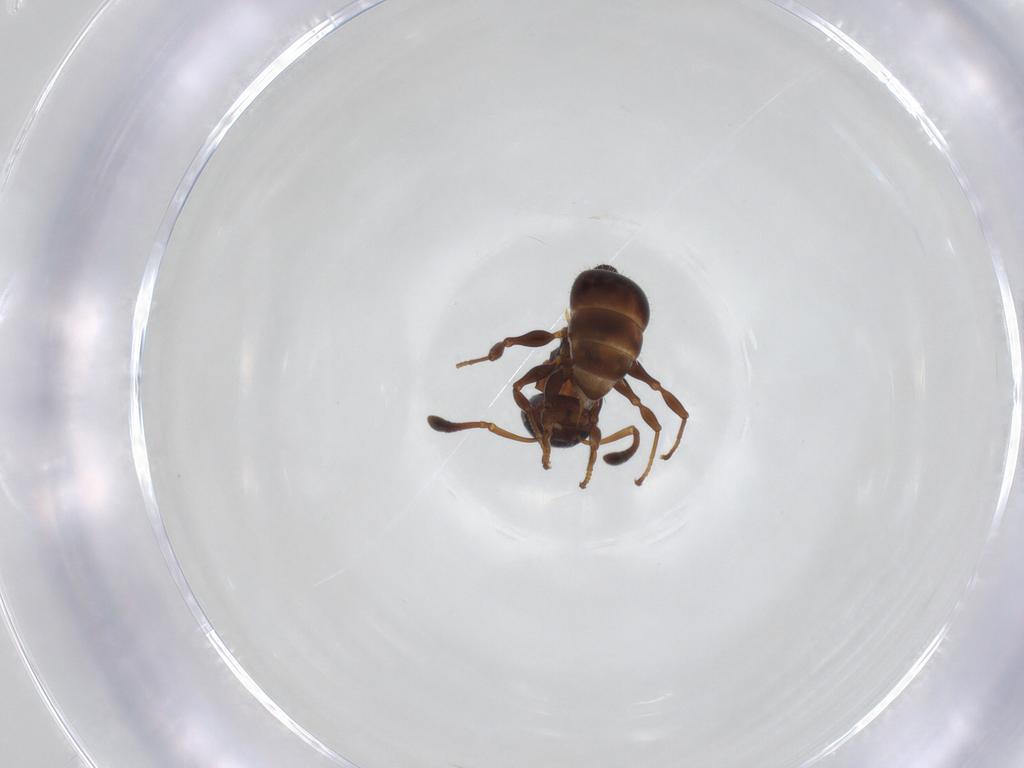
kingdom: Animalia
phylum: Arthropoda
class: Insecta
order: Hymenoptera
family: Formicidae
